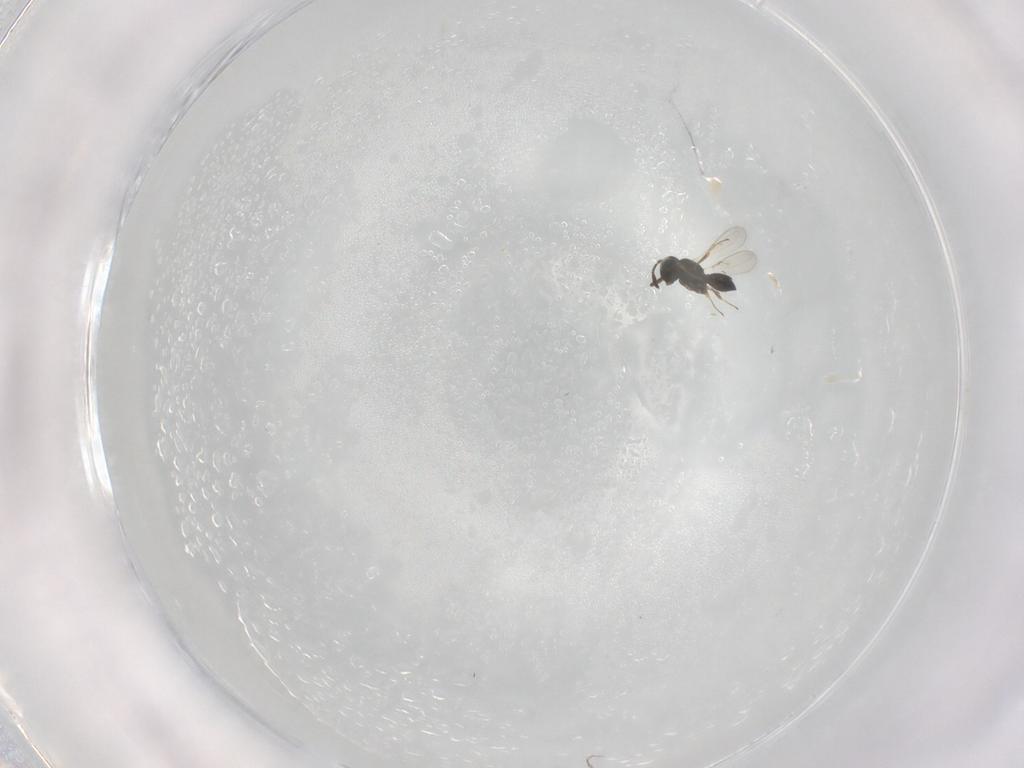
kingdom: Animalia
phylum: Arthropoda
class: Insecta
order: Hymenoptera
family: Scelionidae
